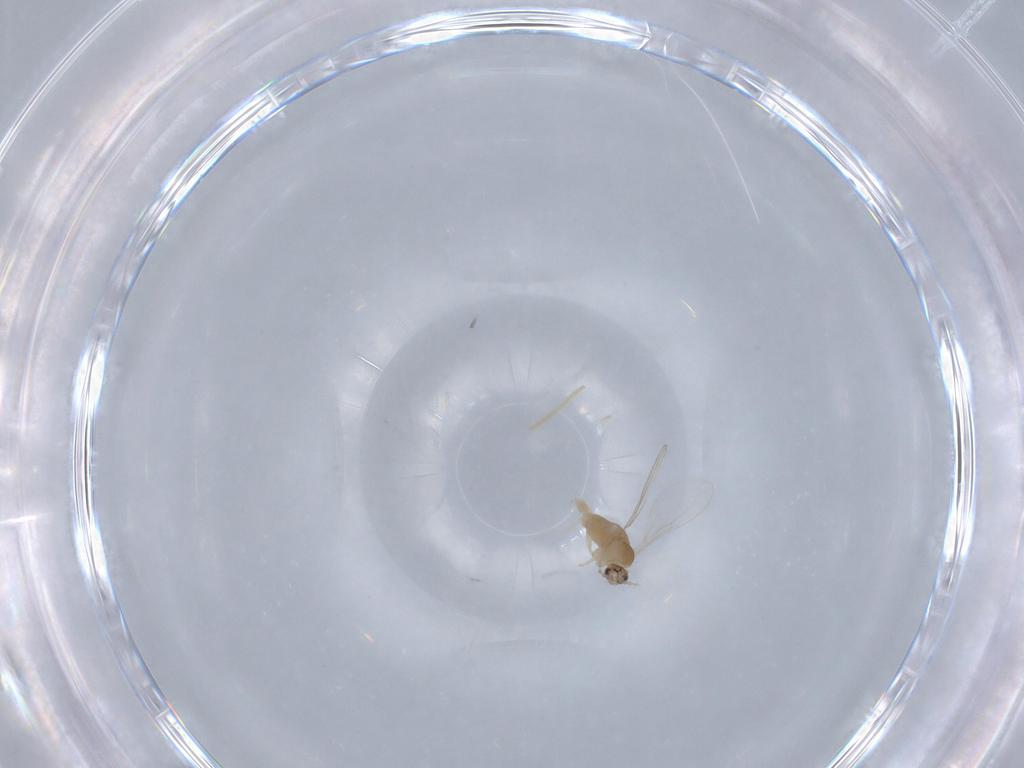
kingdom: Animalia
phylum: Arthropoda
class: Insecta
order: Diptera
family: Cecidomyiidae
